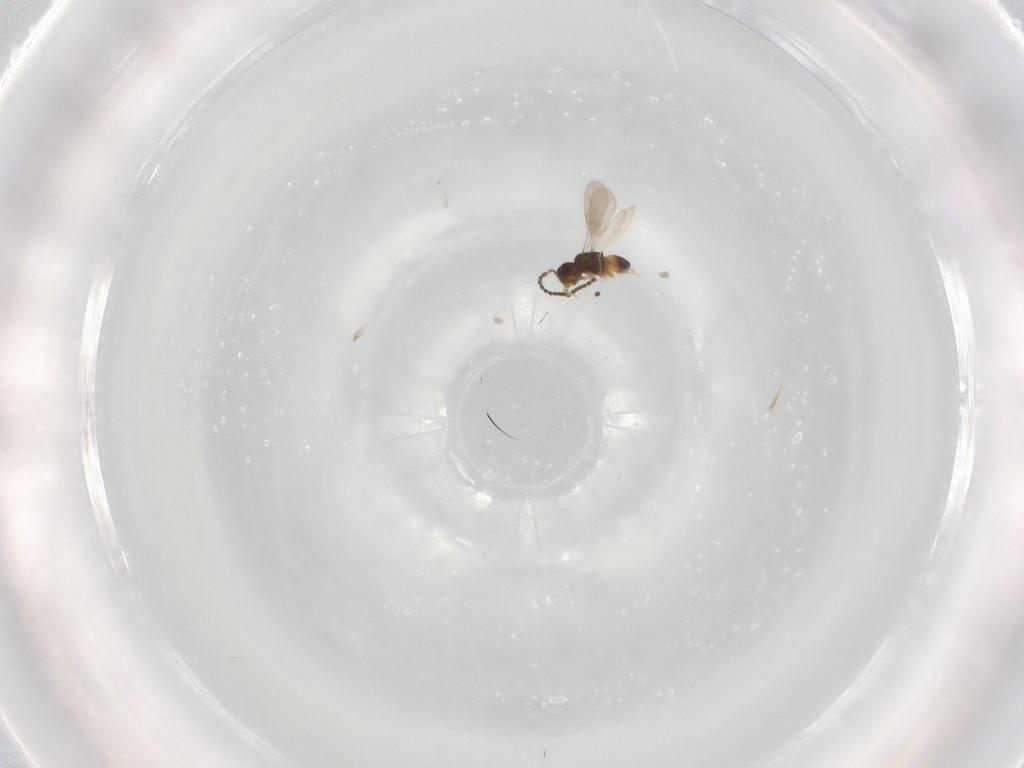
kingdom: Animalia
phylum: Arthropoda
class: Insecta
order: Hymenoptera
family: Ceraphronidae
